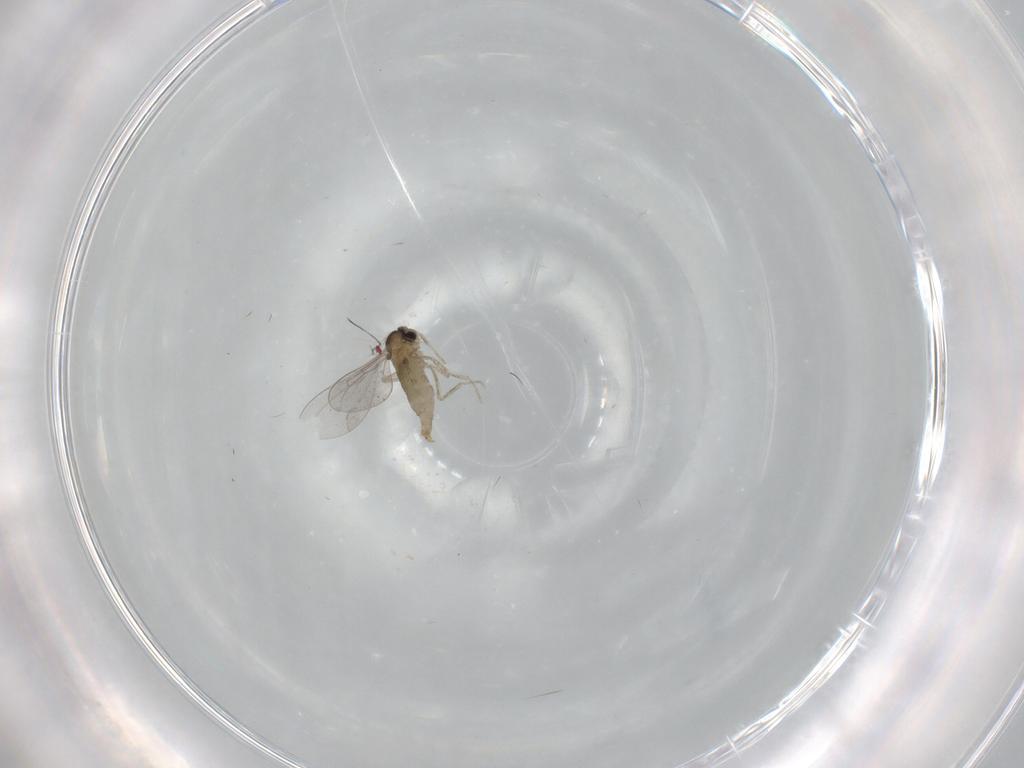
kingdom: Animalia
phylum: Arthropoda
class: Insecta
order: Diptera
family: Cecidomyiidae
